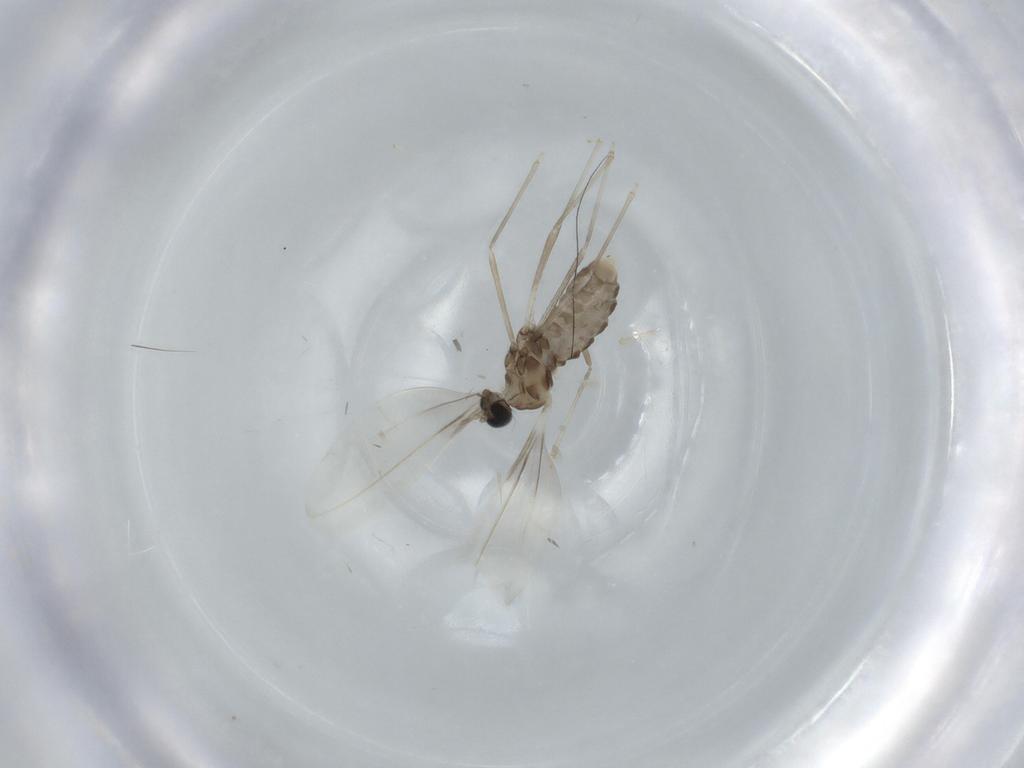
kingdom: Animalia
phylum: Arthropoda
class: Insecta
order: Diptera
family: Cecidomyiidae
